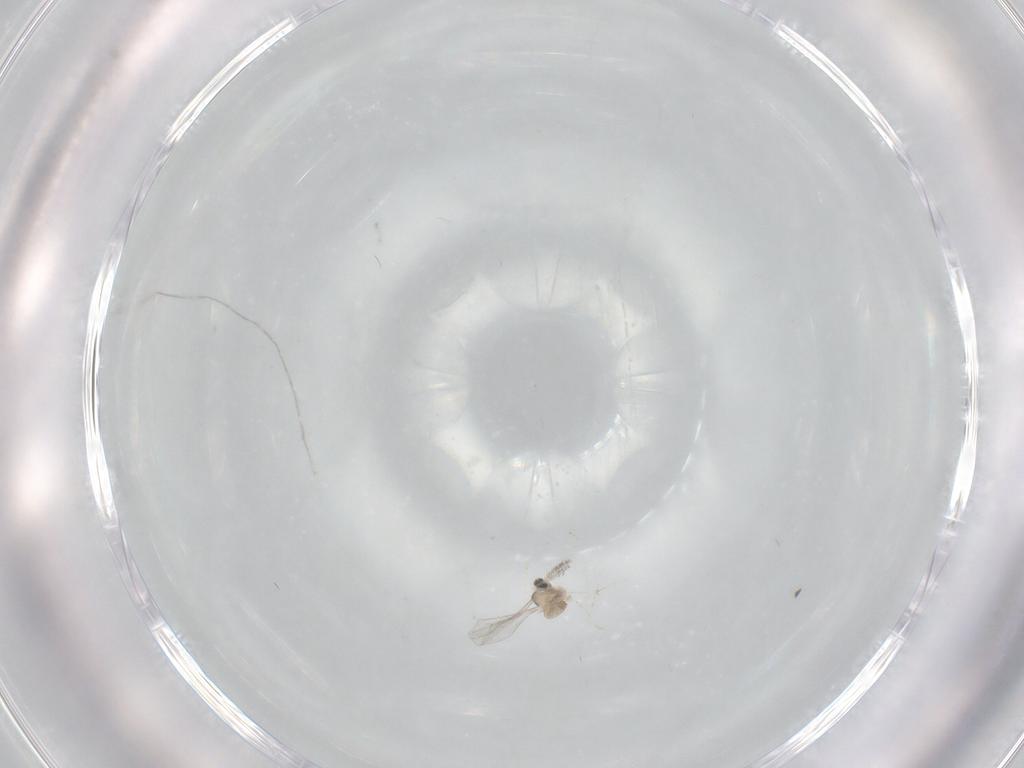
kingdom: Animalia
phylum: Arthropoda
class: Insecta
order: Diptera
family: Cecidomyiidae
